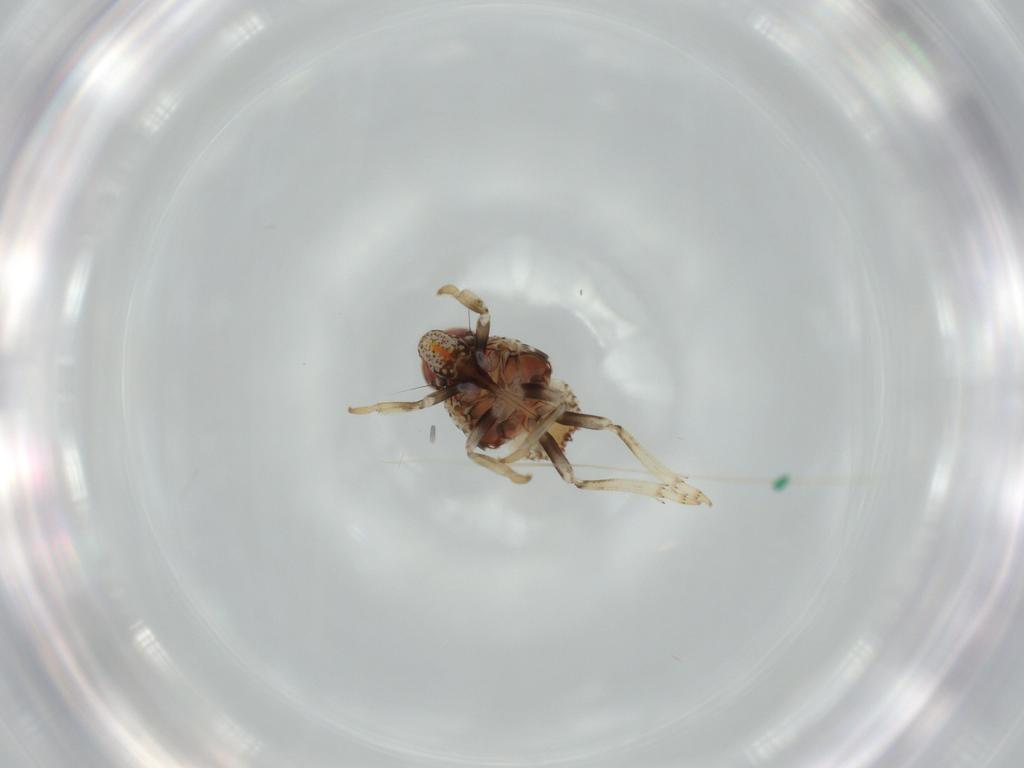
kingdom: Animalia
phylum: Arthropoda
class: Insecta
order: Hemiptera
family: Issidae
